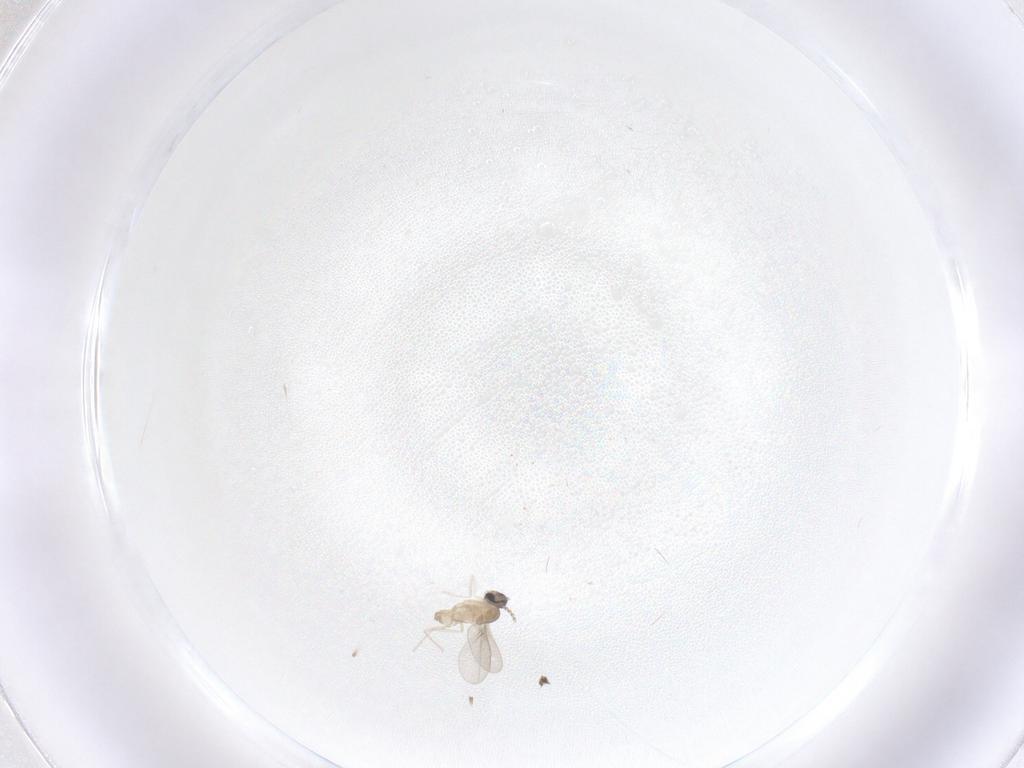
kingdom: Animalia
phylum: Arthropoda
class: Insecta
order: Diptera
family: Cecidomyiidae
